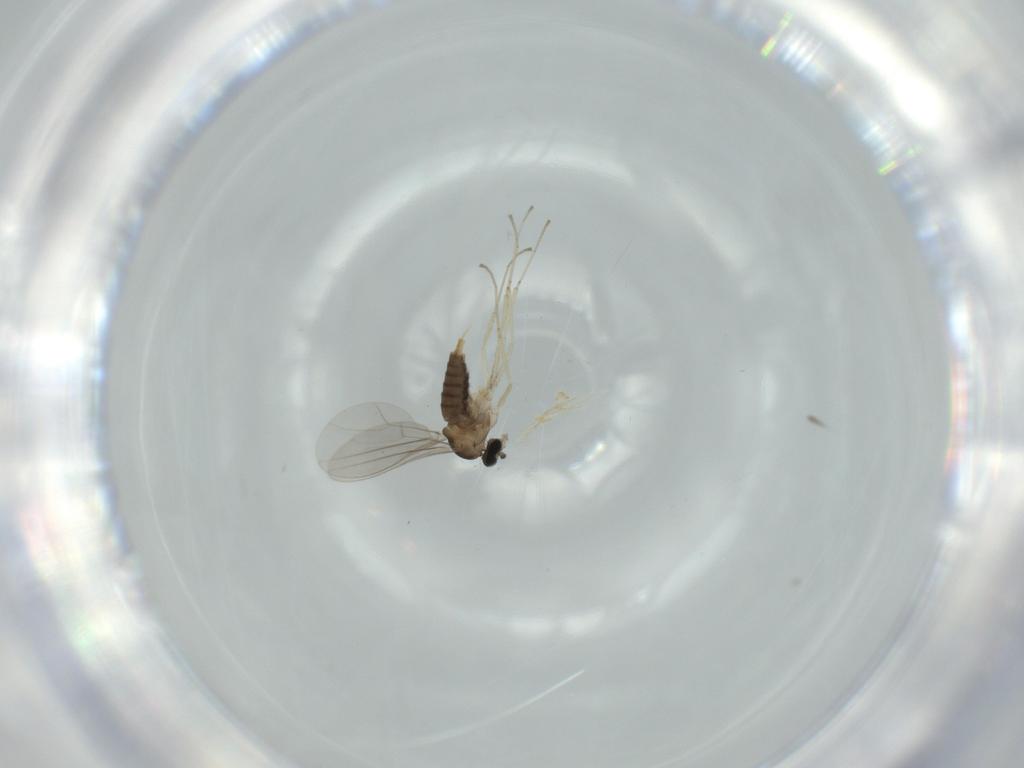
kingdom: Animalia
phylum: Arthropoda
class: Insecta
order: Diptera
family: Cecidomyiidae
